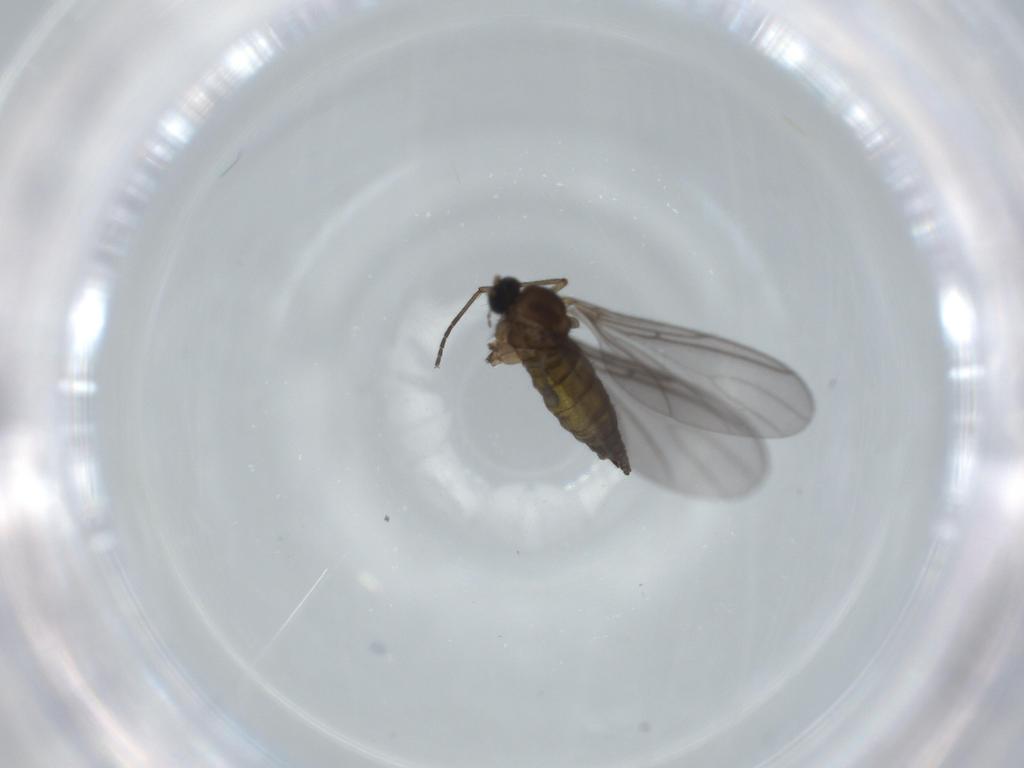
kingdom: Animalia
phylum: Arthropoda
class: Insecta
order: Diptera
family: Sciaridae
